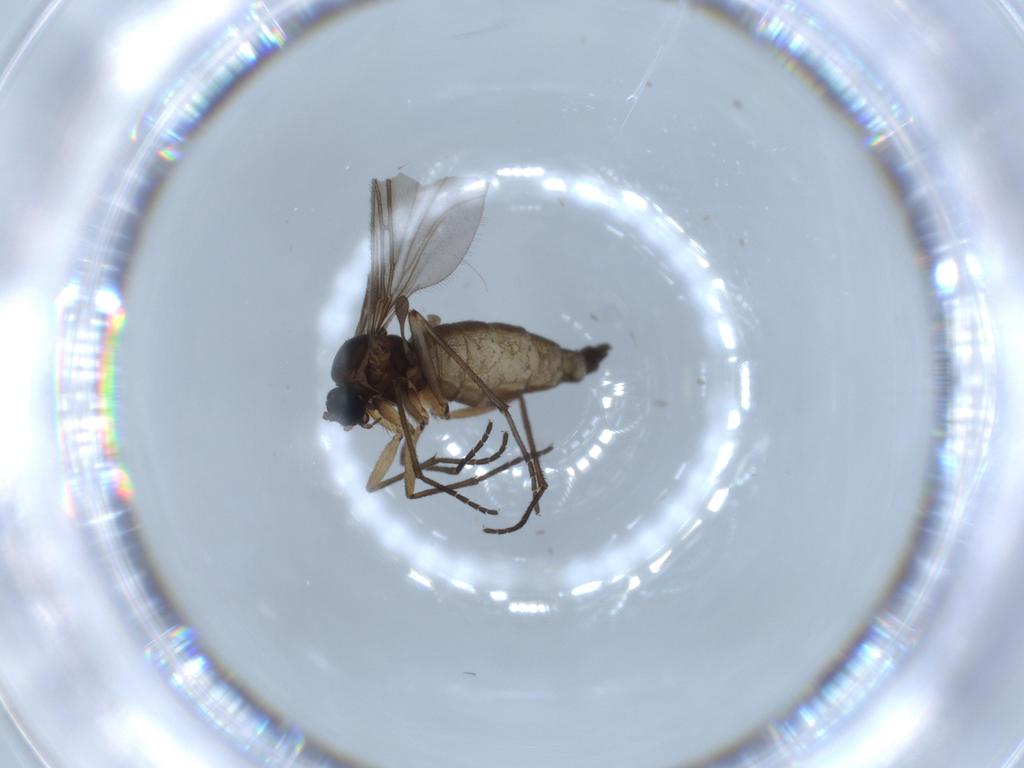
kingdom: Animalia
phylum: Arthropoda
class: Insecta
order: Diptera
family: Sciaridae
